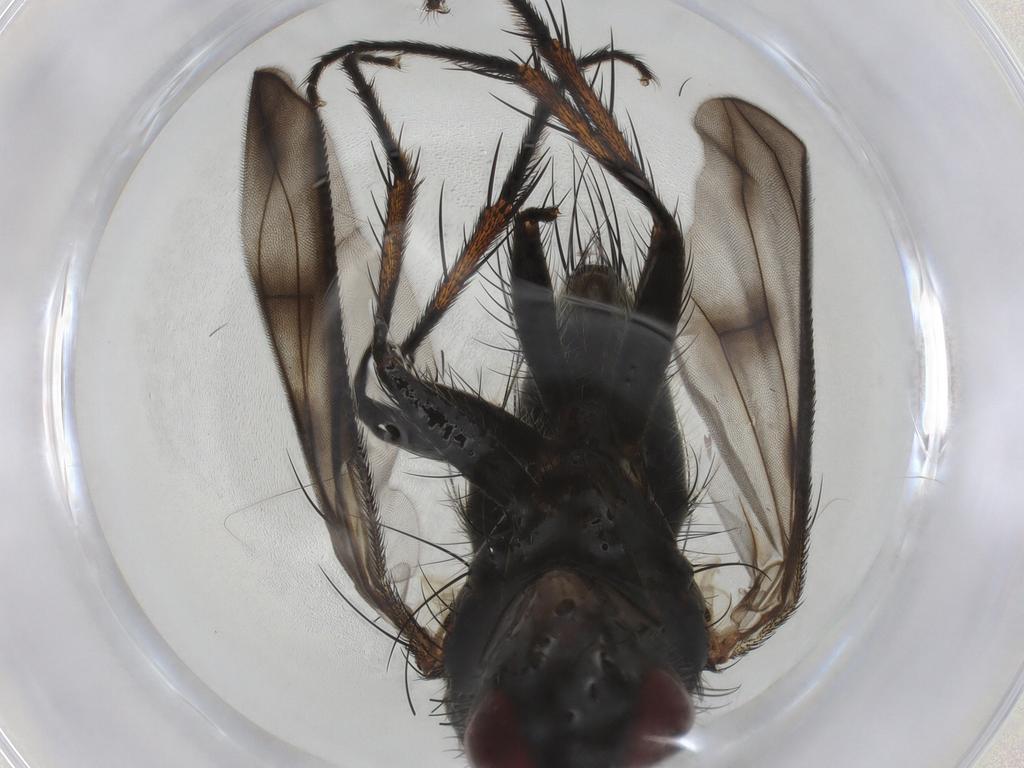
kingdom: Animalia
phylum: Arthropoda
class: Insecta
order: Diptera
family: Tachinidae
